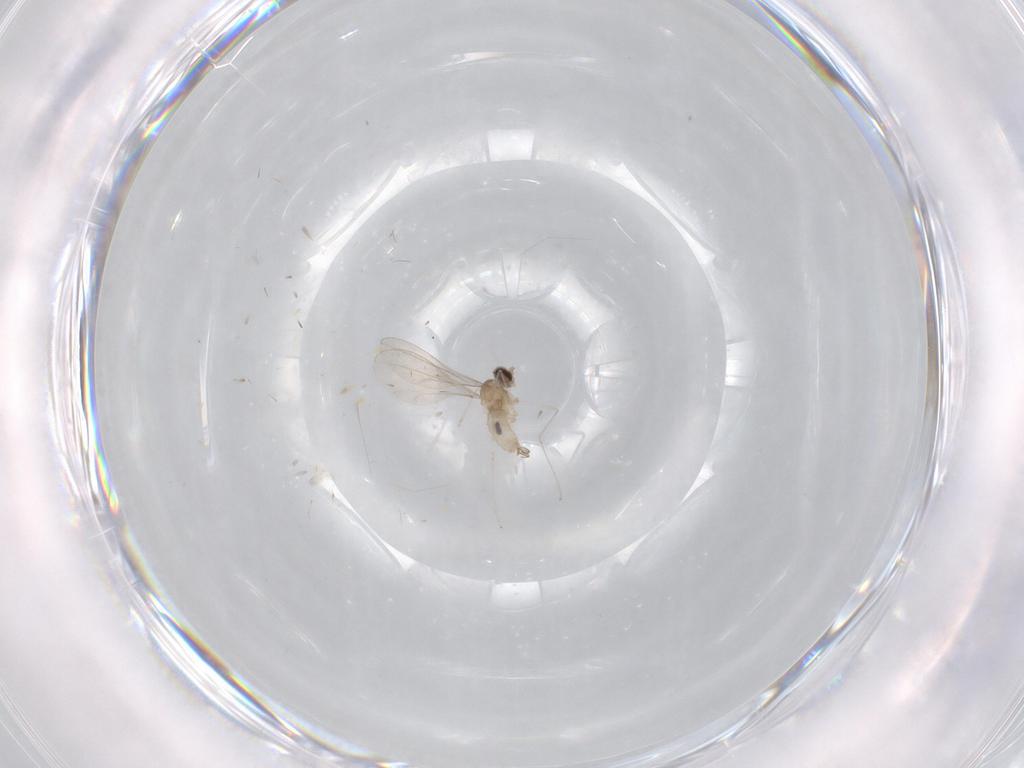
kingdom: Animalia
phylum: Arthropoda
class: Insecta
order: Diptera
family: Cecidomyiidae
